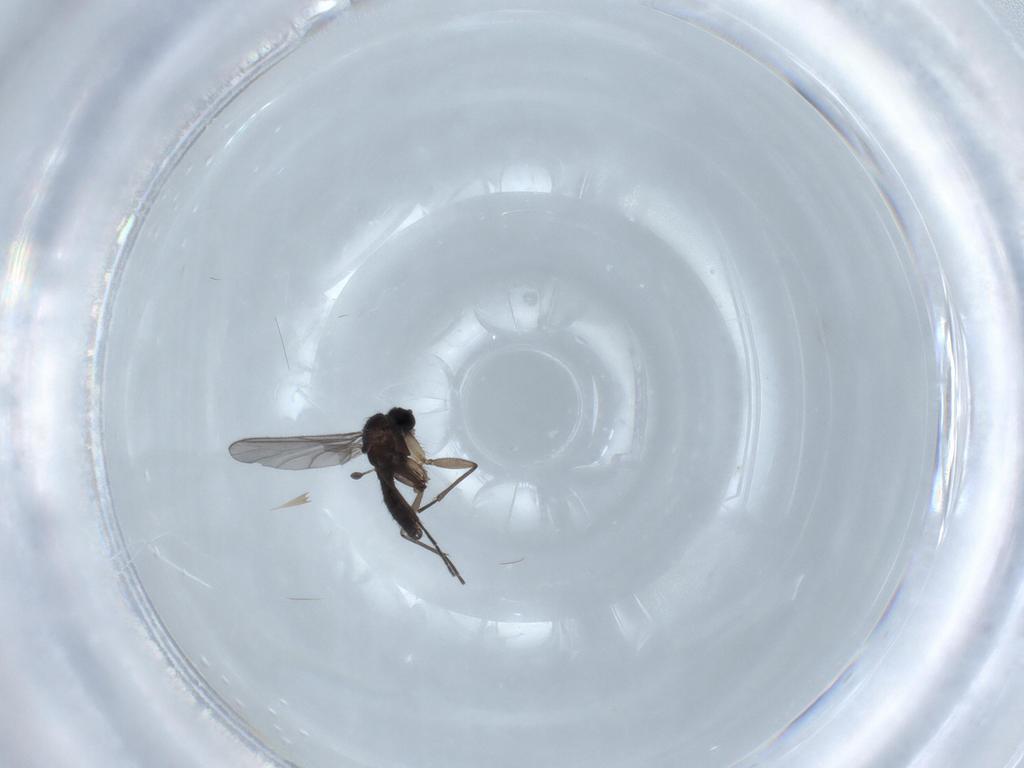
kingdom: Animalia
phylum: Arthropoda
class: Insecta
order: Diptera
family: Sciaridae
